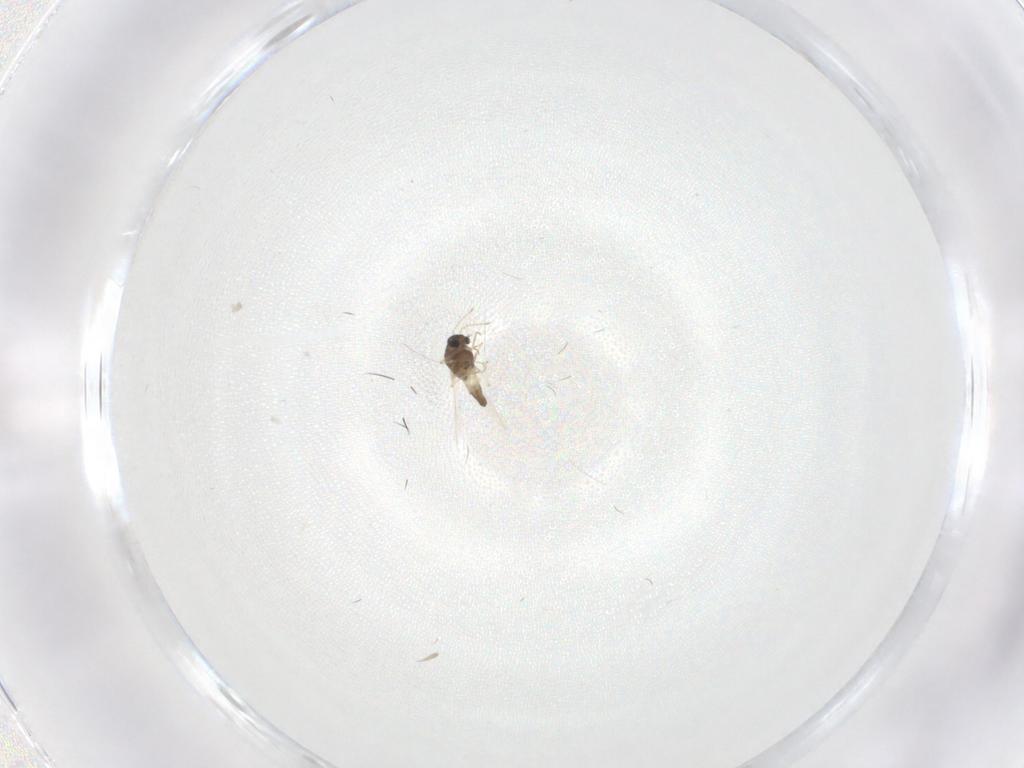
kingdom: Animalia
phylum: Arthropoda
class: Insecta
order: Diptera
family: Chironomidae
